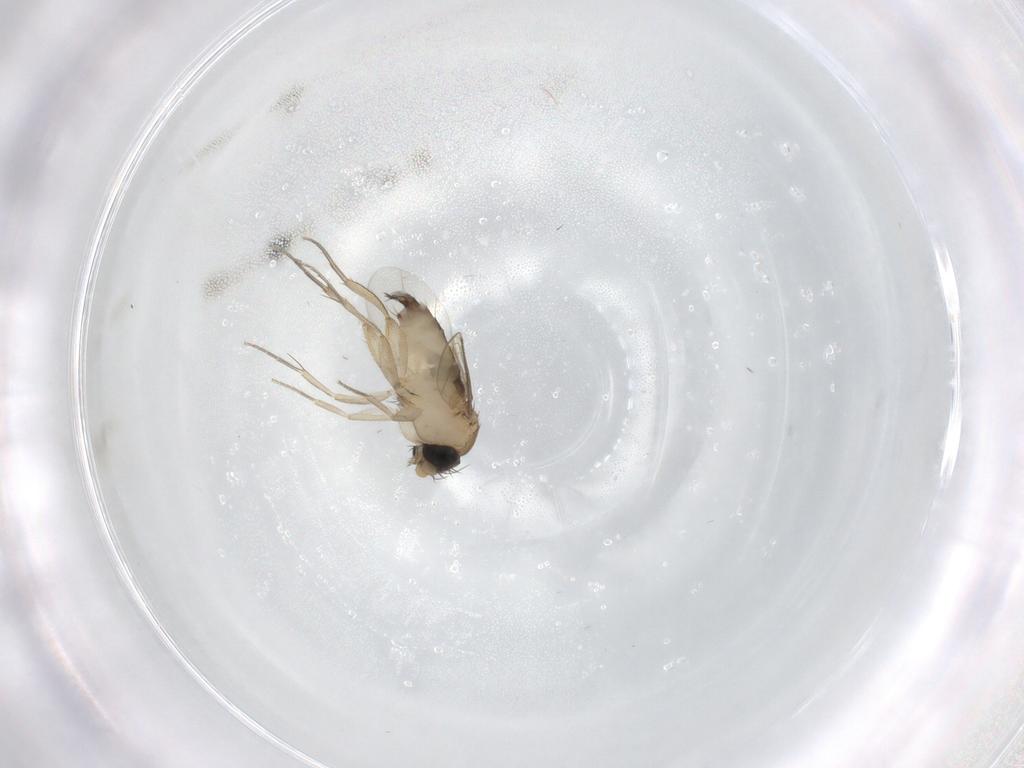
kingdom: Animalia
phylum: Arthropoda
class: Insecta
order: Diptera
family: Phoridae
